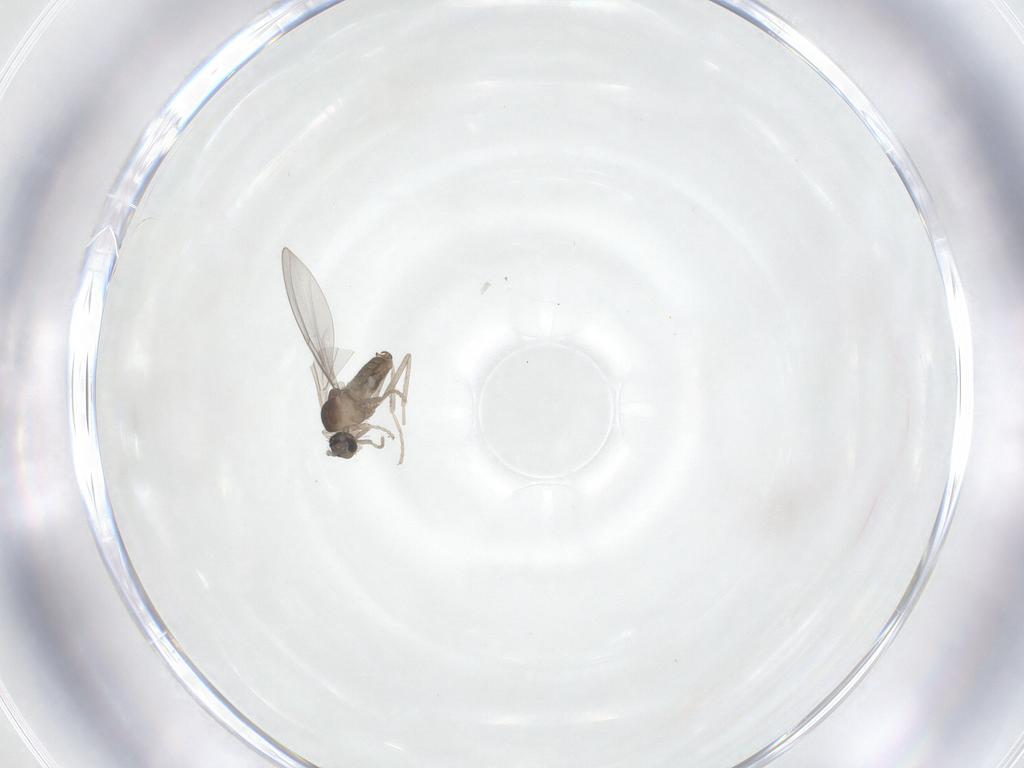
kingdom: Animalia
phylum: Arthropoda
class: Insecta
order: Diptera
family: Cecidomyiidae
